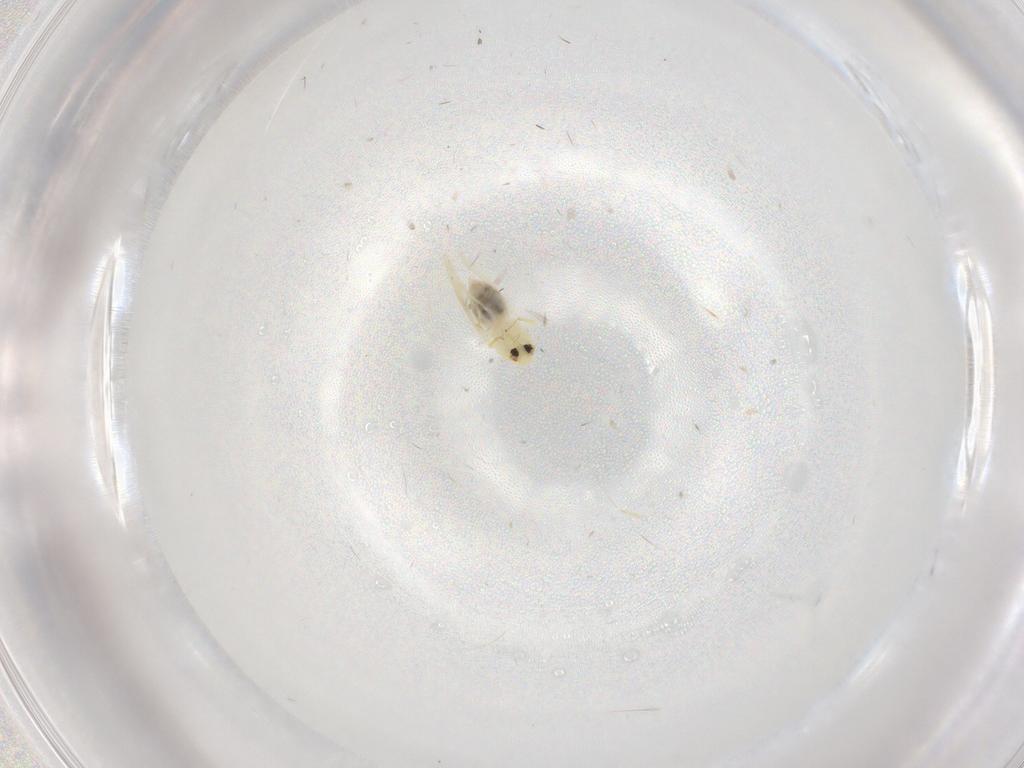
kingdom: Animalia
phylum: Arthropoda
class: Insecta
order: Hemiptera
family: Aleyrodidae
